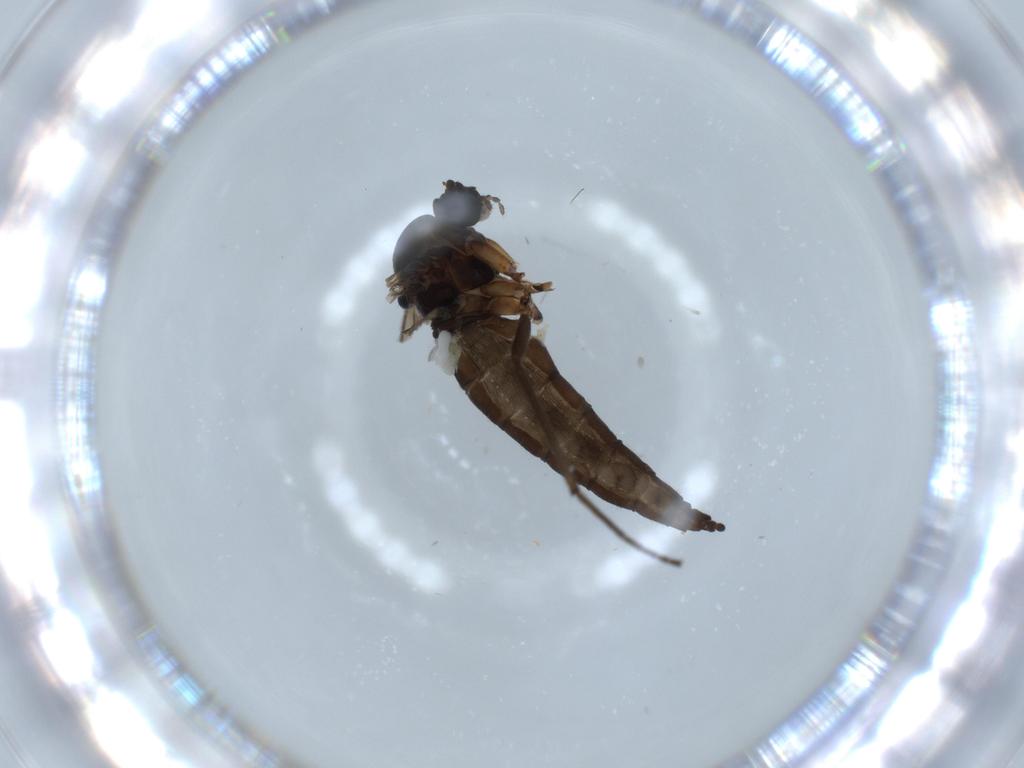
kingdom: Animalia
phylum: Arthropoda
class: Insecta
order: Diptera
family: Sciaridae
